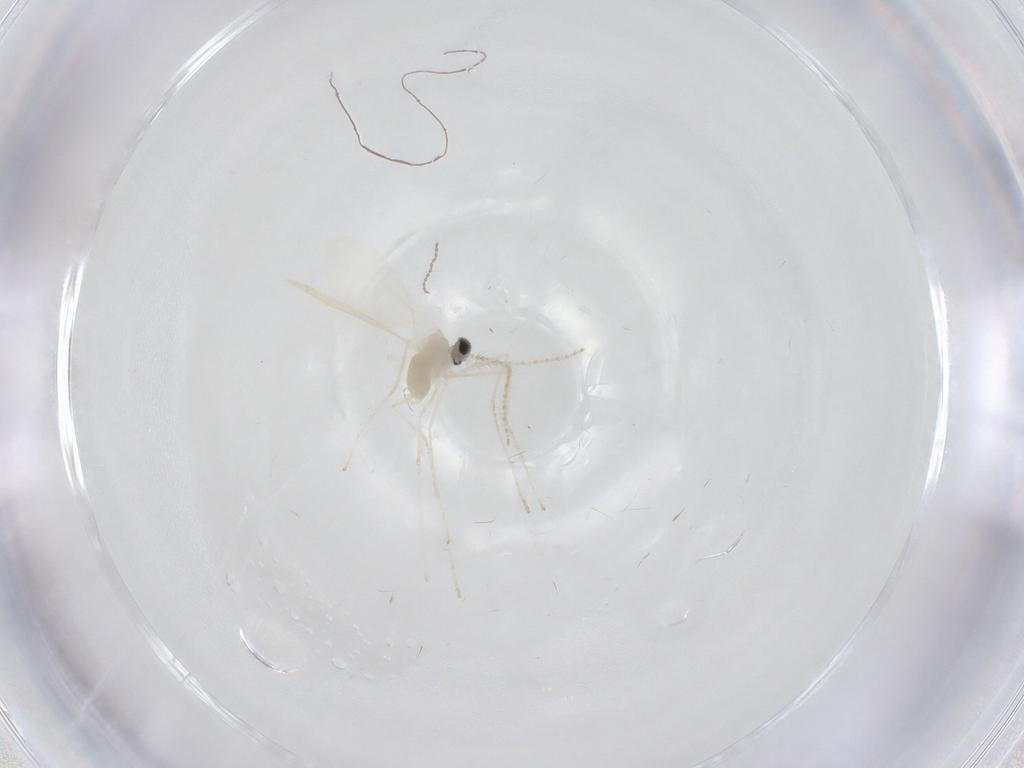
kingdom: Animalia
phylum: Arthropoda
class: Insecta
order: Diptera
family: Cecidomyiidae
